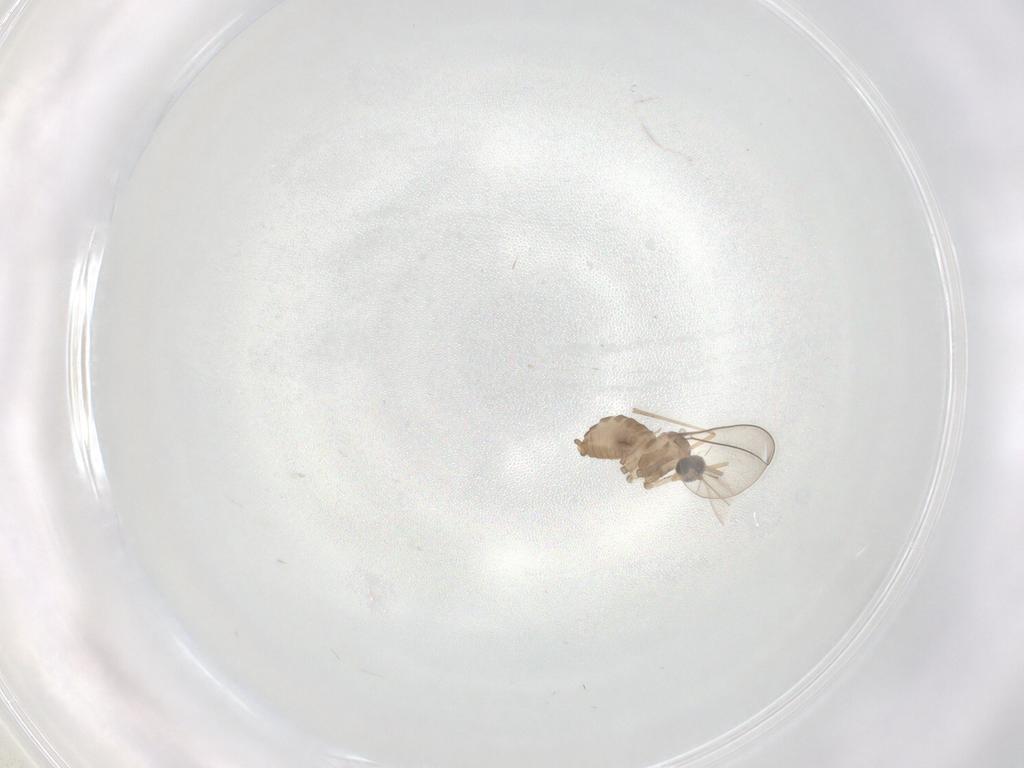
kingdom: Animalia
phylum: Arthropoda
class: Insecta
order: Diptera
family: Cecidomyiidae
